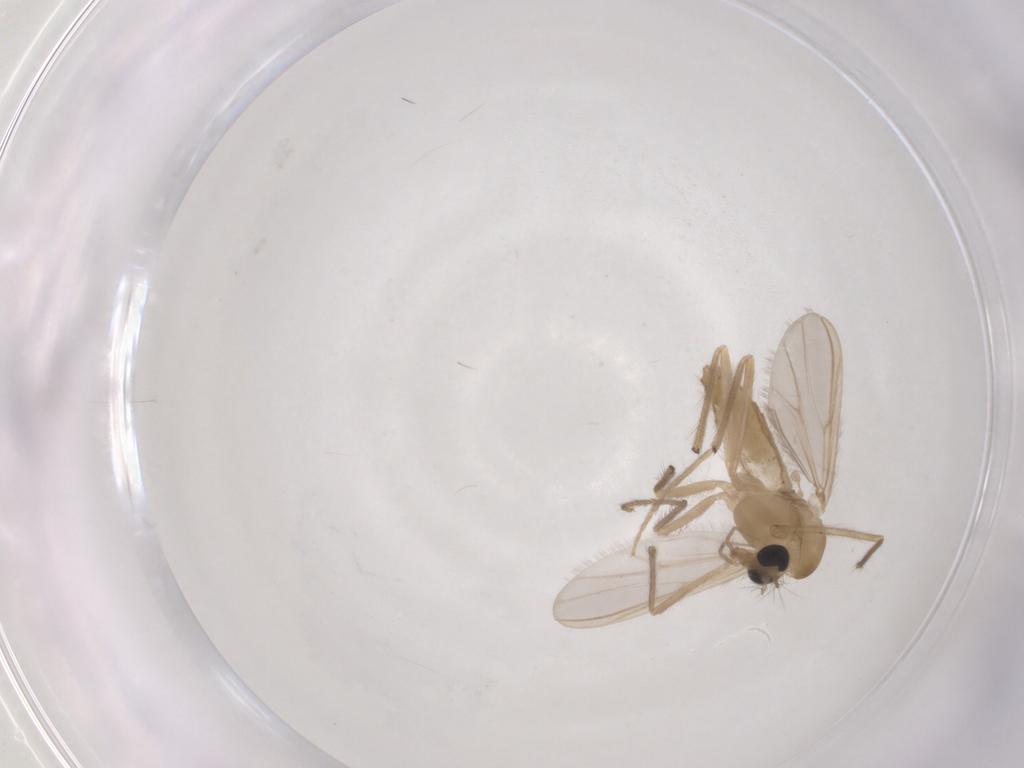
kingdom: Animalia
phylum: Arthropoda
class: Insecta
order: Diptera
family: Chironomidae
